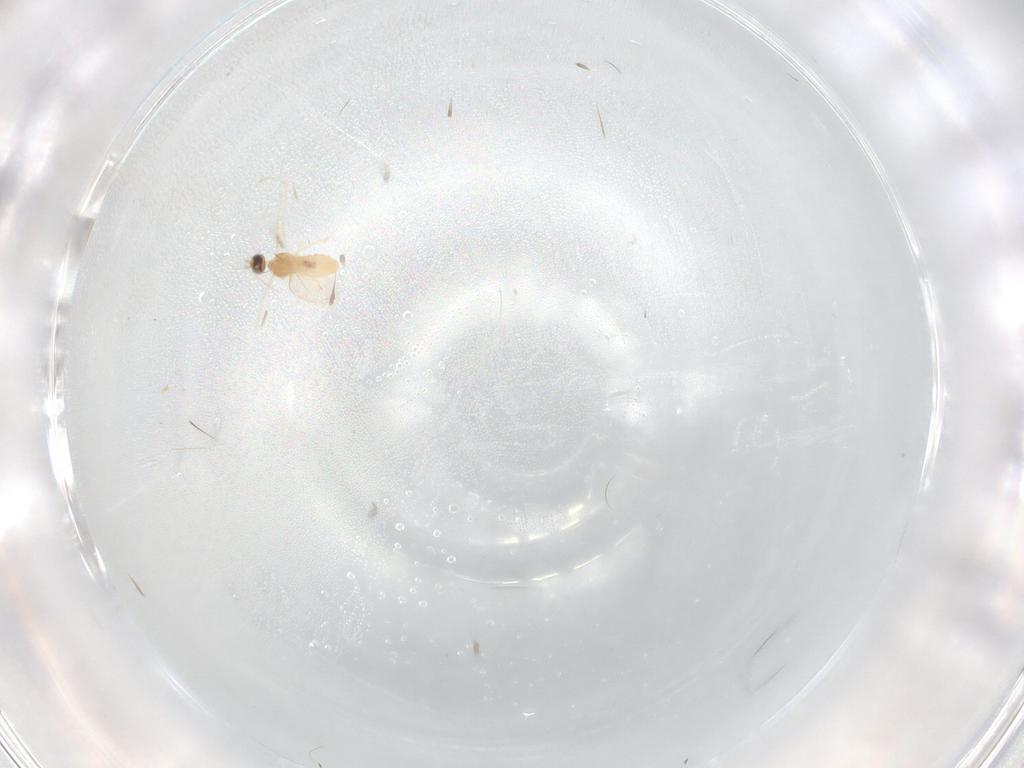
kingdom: Animalia
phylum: Arthropoda
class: Insecta
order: Diptera
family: Cecidomyiidae
